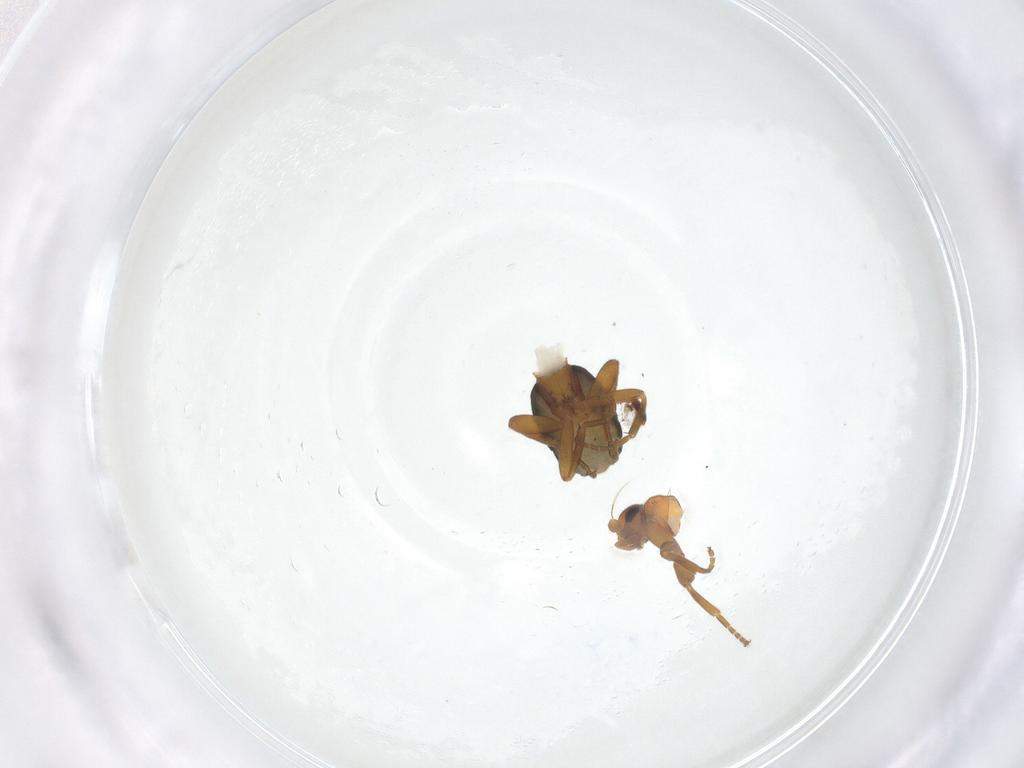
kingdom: Animalia
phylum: Arthropoda
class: Insecta
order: Diptera
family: Phoridae
